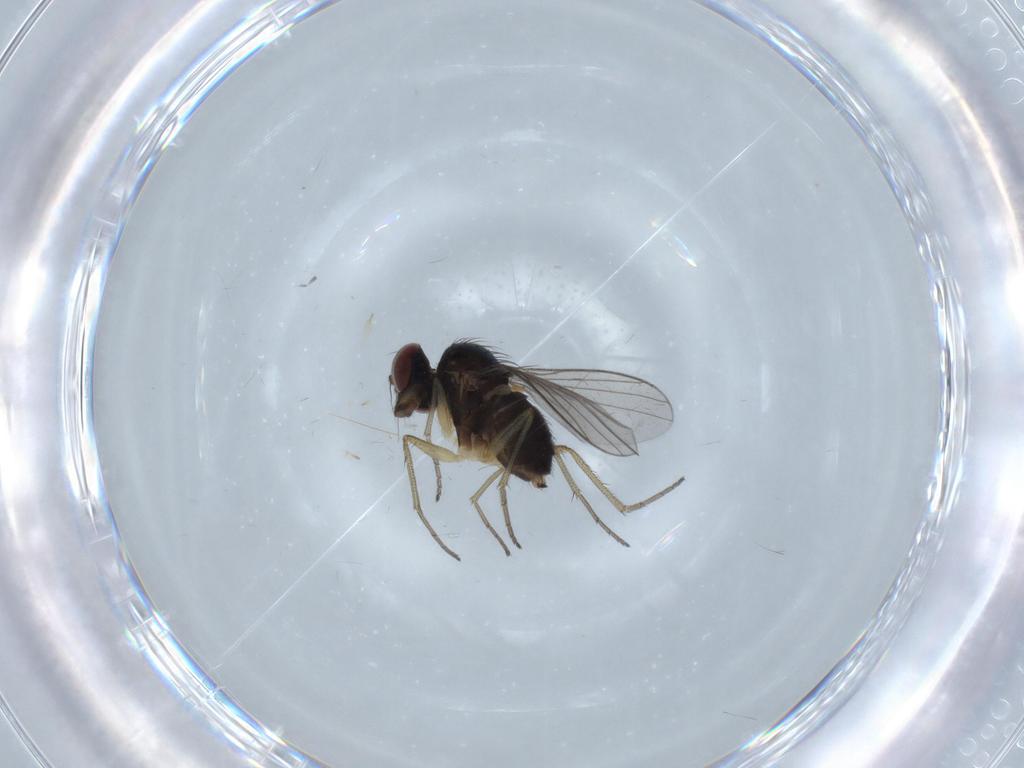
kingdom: Animalia
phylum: Arthropoda
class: Insecta
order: Diptera
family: Dolichopodidae
